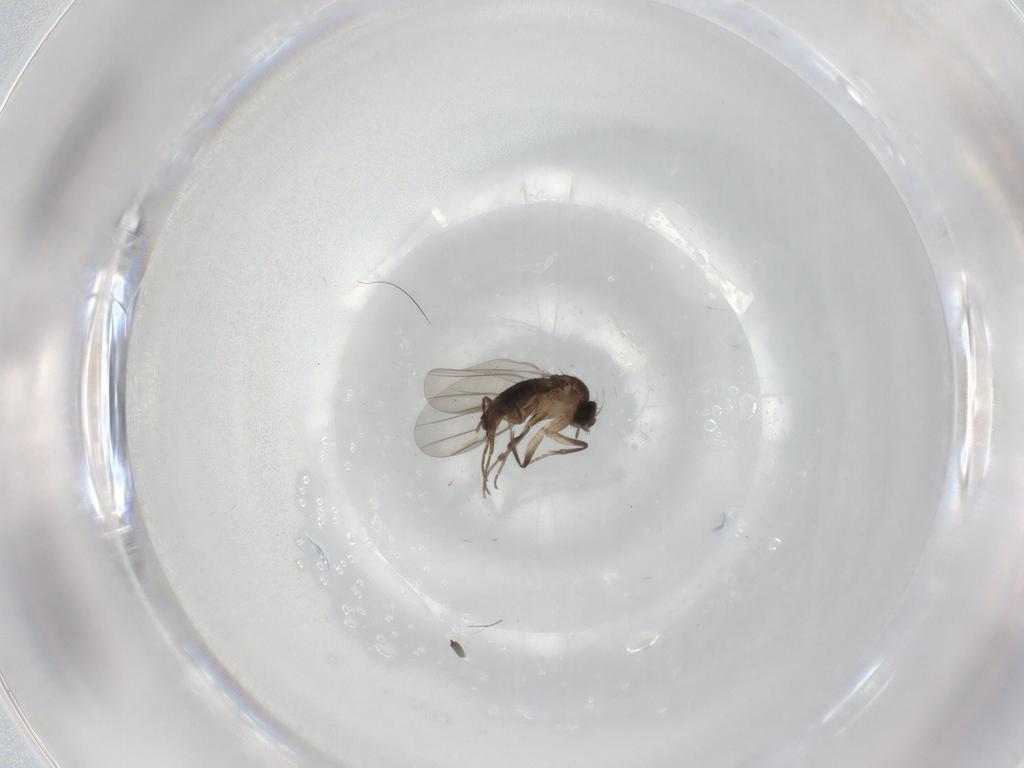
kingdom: Animalia
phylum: Arthropoda
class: Insecta
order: Diptera
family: Phoridae
